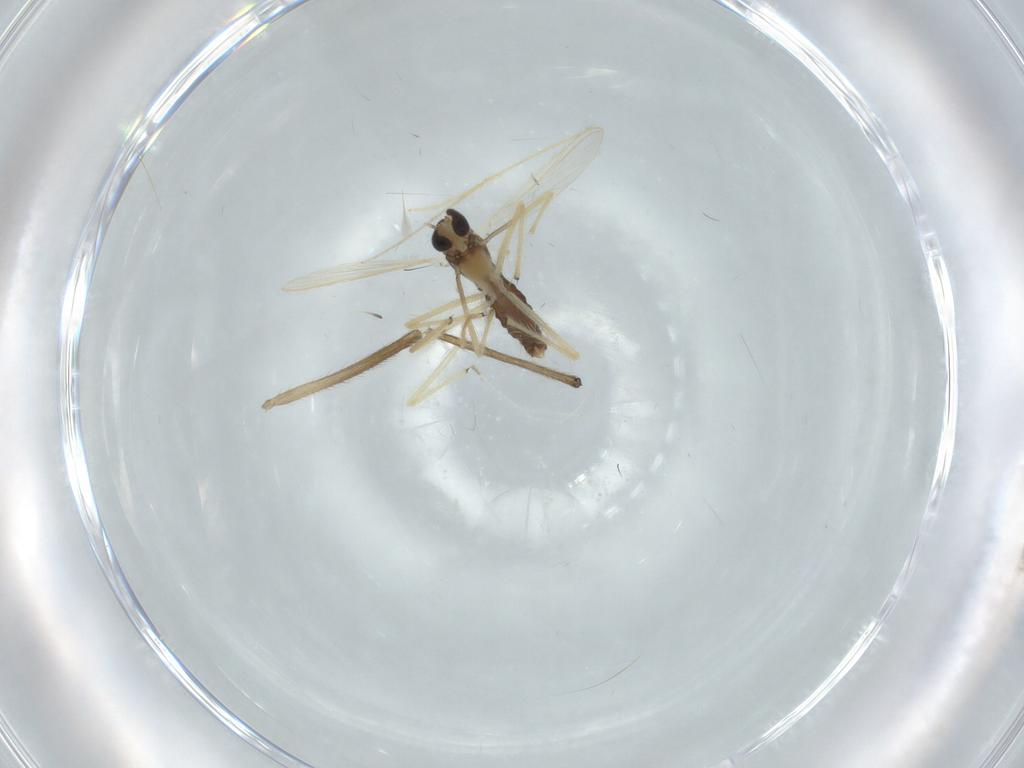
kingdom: Animalia
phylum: Arthropoda
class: Insecta
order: Diptera
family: Chironomidae
